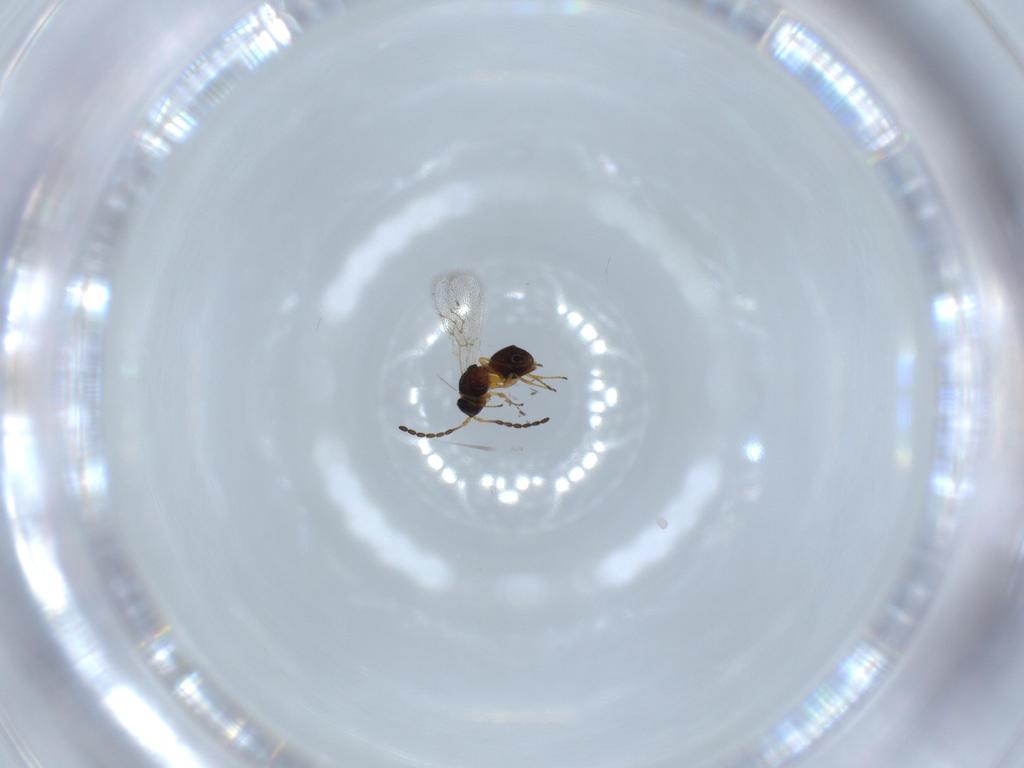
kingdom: Animalia
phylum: Arthropoda
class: Insecta
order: Hymenoptera
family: Figitidae
